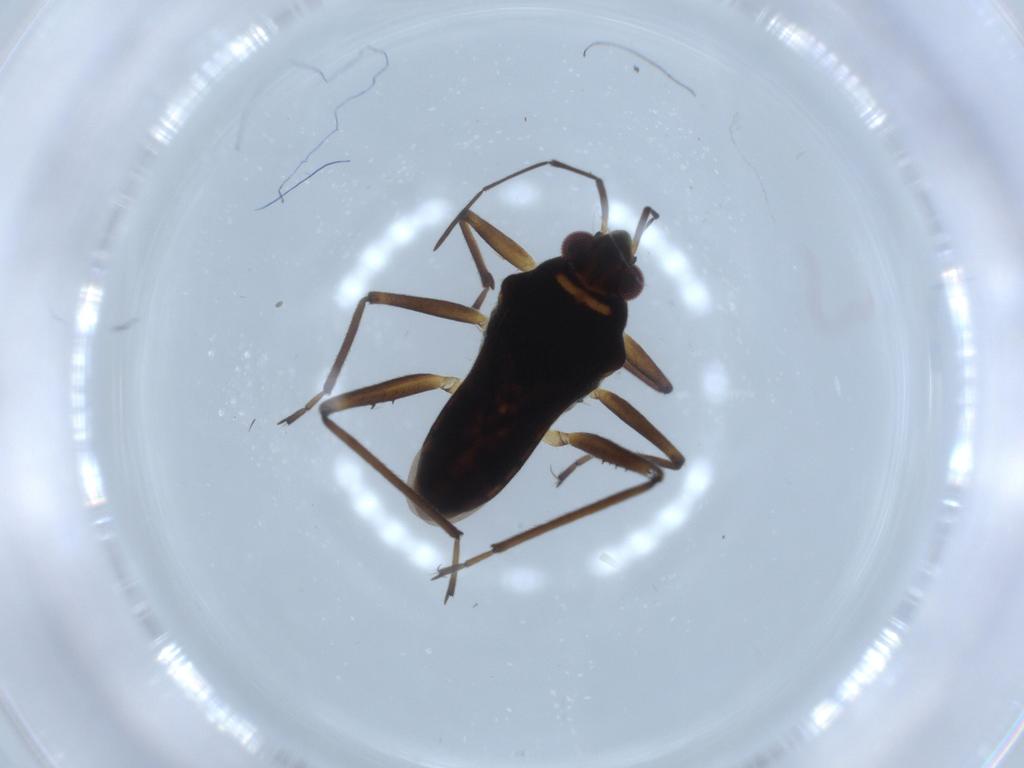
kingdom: Animalia
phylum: Arthropoda
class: Insecta
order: Hemiptera
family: Veliidae
